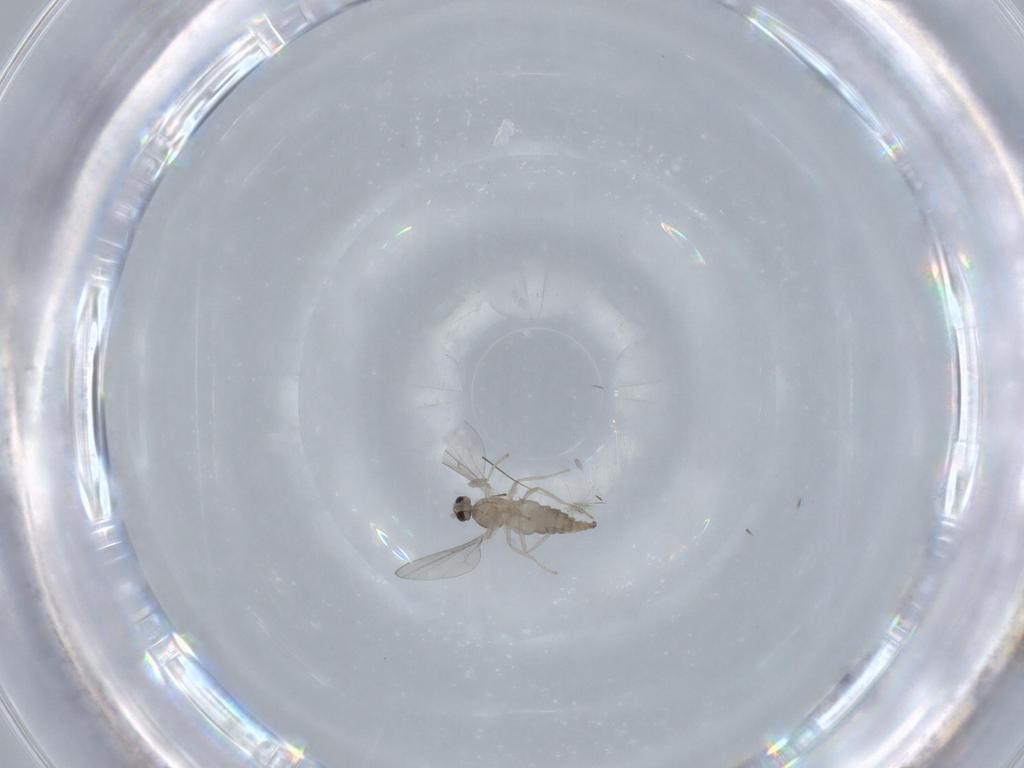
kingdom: Animalia
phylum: Arthropoda
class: Insecta
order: Diptera
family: Cecidomyiidae
